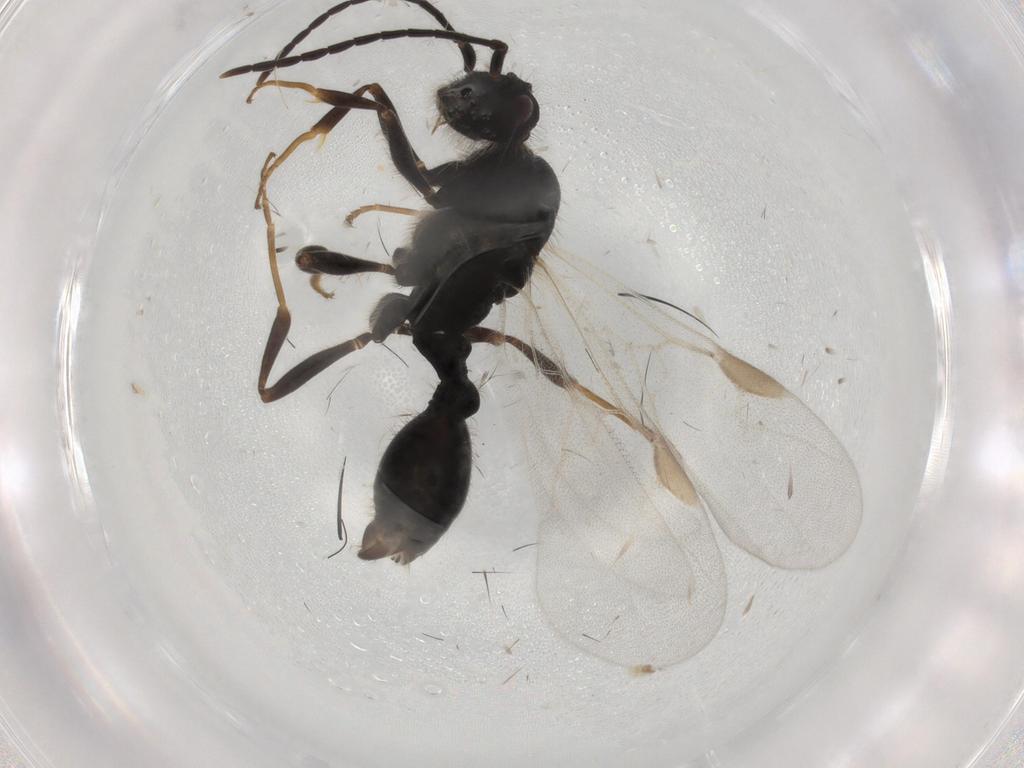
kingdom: Animalia
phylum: Arthropoda
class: Insecta
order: Hymenoptera
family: Formicidae
